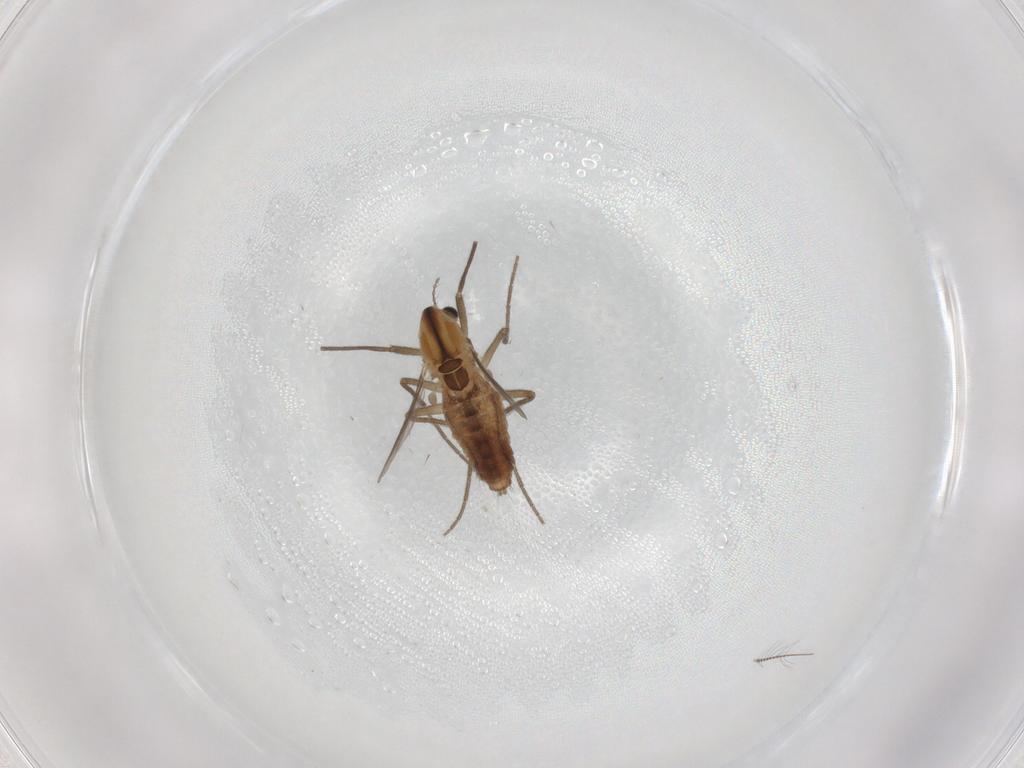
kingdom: Animalia
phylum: Arthropoda
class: Insecta
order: Diptera
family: Chironomidae
